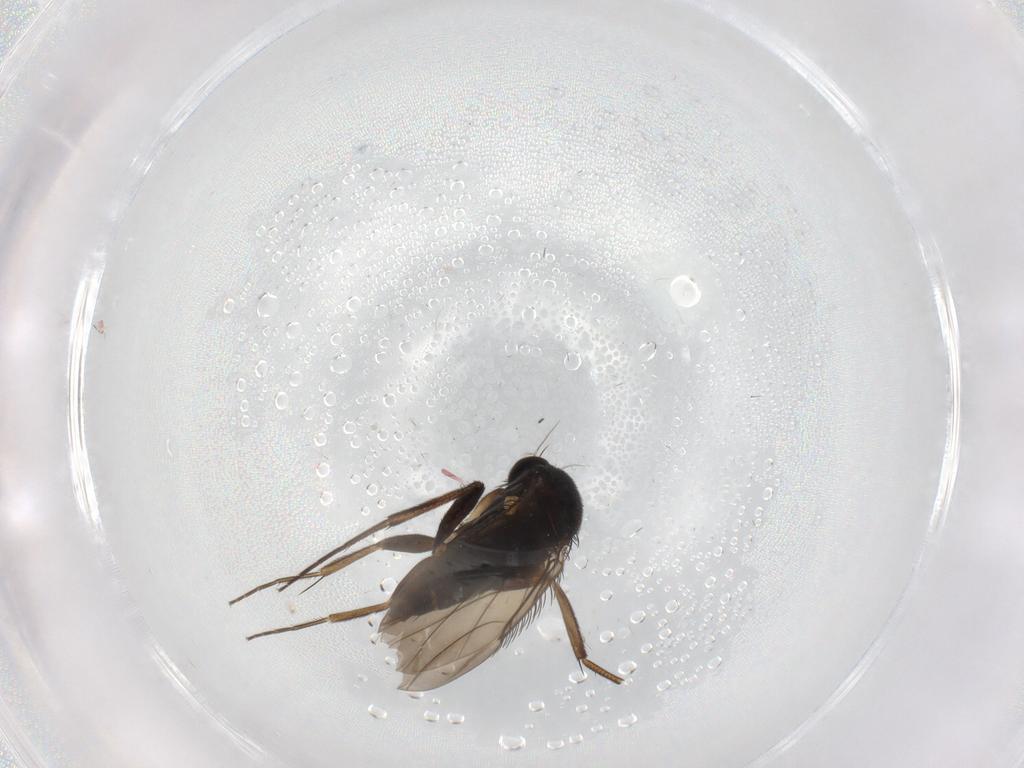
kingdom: Animalia
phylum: Arthropoda
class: Insecta
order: Diptera
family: Phoridae
